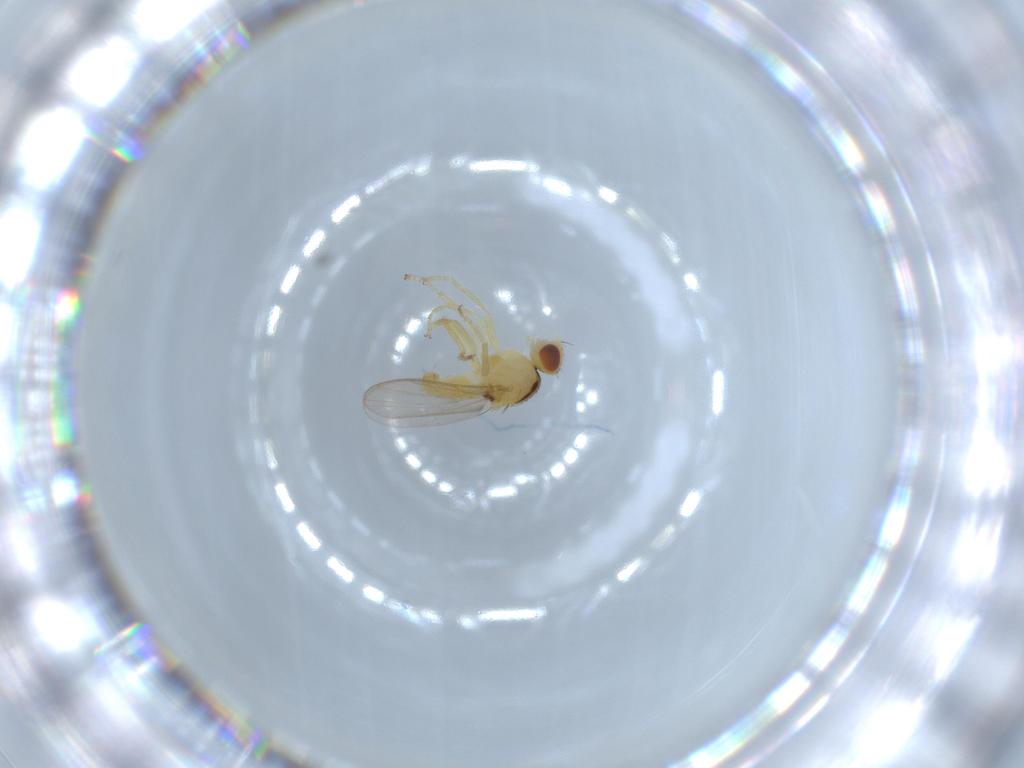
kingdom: Animalia
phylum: Arthropoda
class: Insecta
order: Diptera
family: Chloropidae
